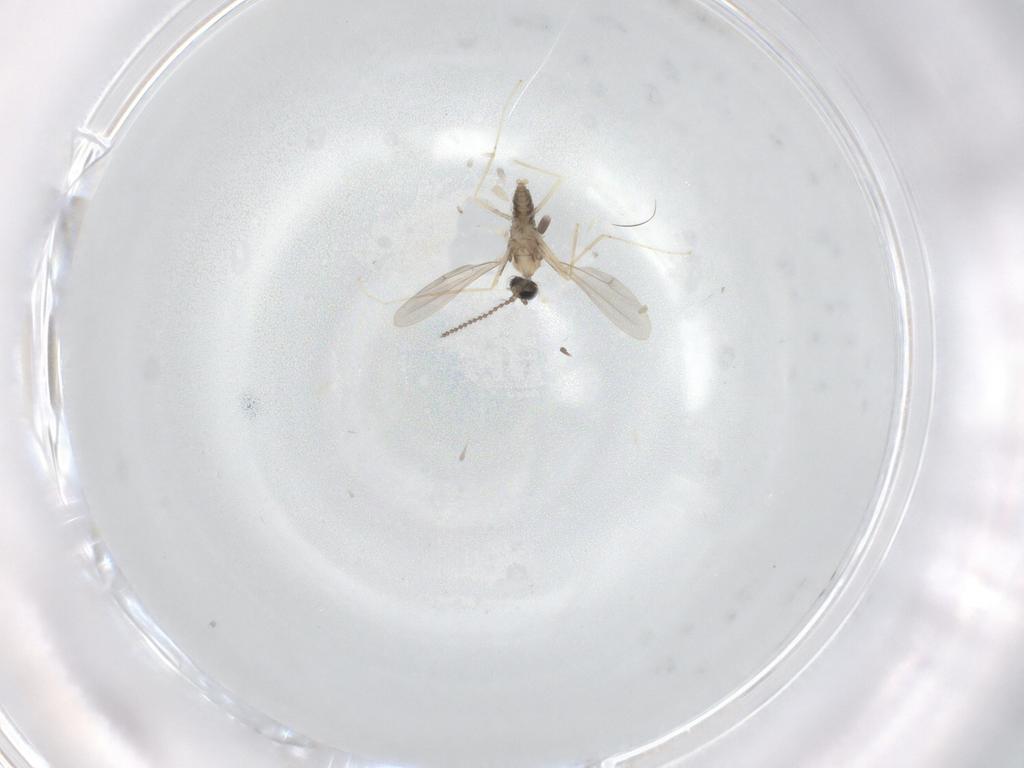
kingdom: Animalia
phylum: Arthropoda
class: Insecta
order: Diptera
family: Cecidomyiidae
